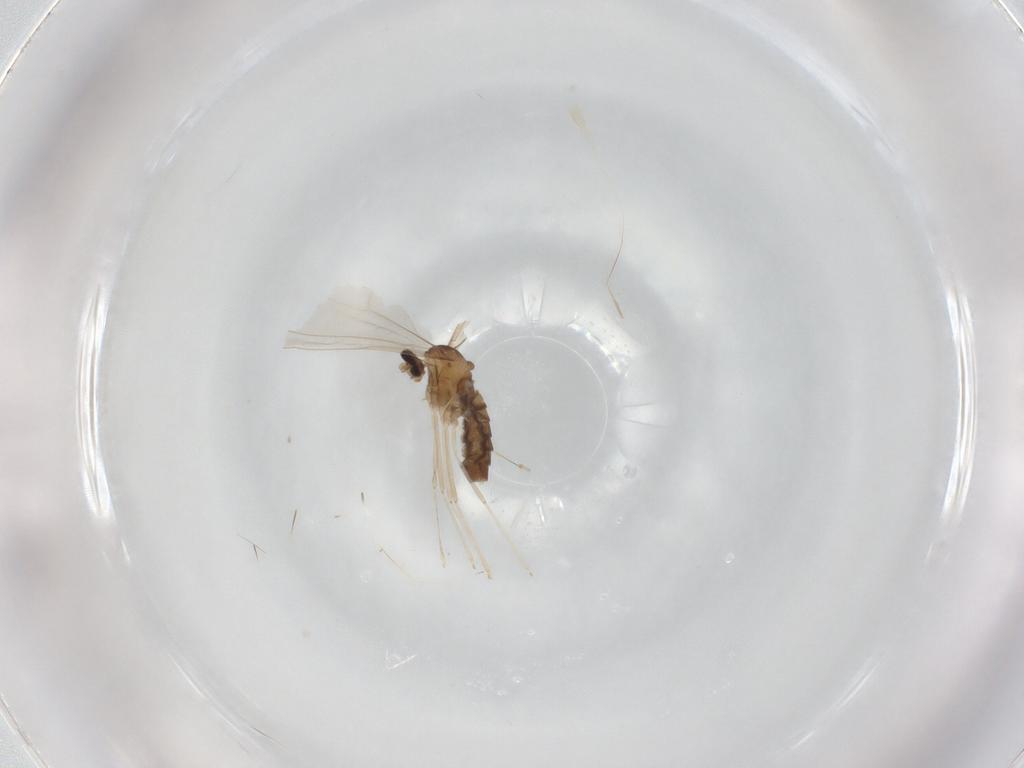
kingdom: Animalia
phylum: Arthropoda
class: Insecta
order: Diptera
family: Cecidomyiidae
